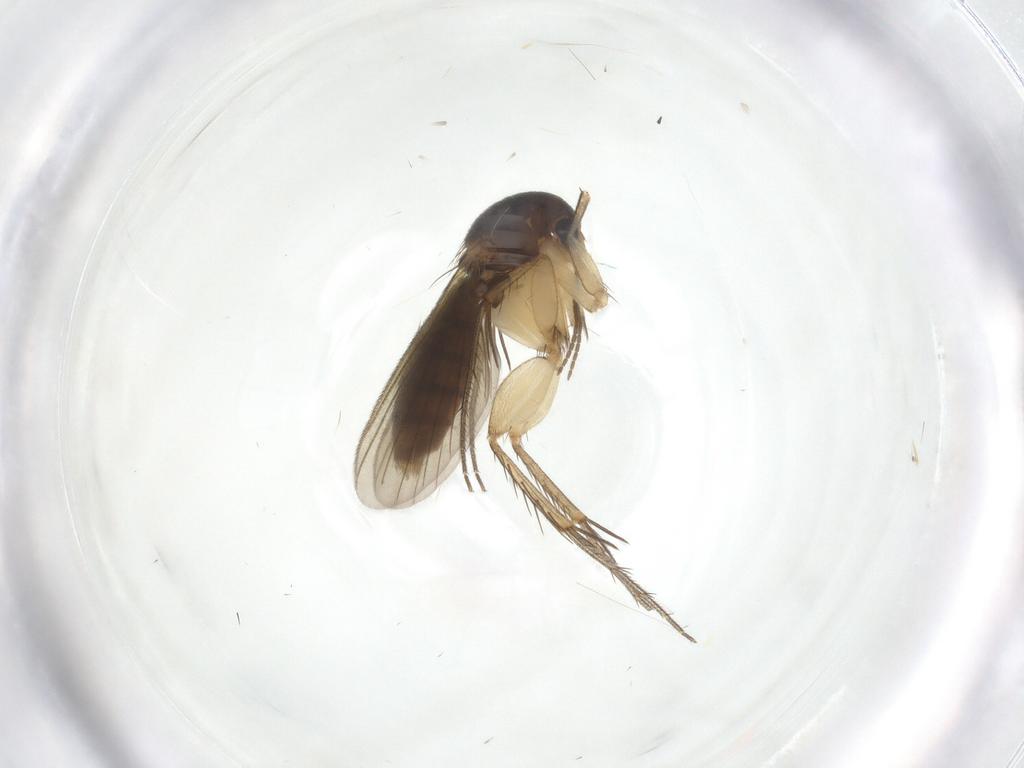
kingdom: Animalia
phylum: Arthropoda
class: Insecta
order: Diptera
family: Mycetophilidae
